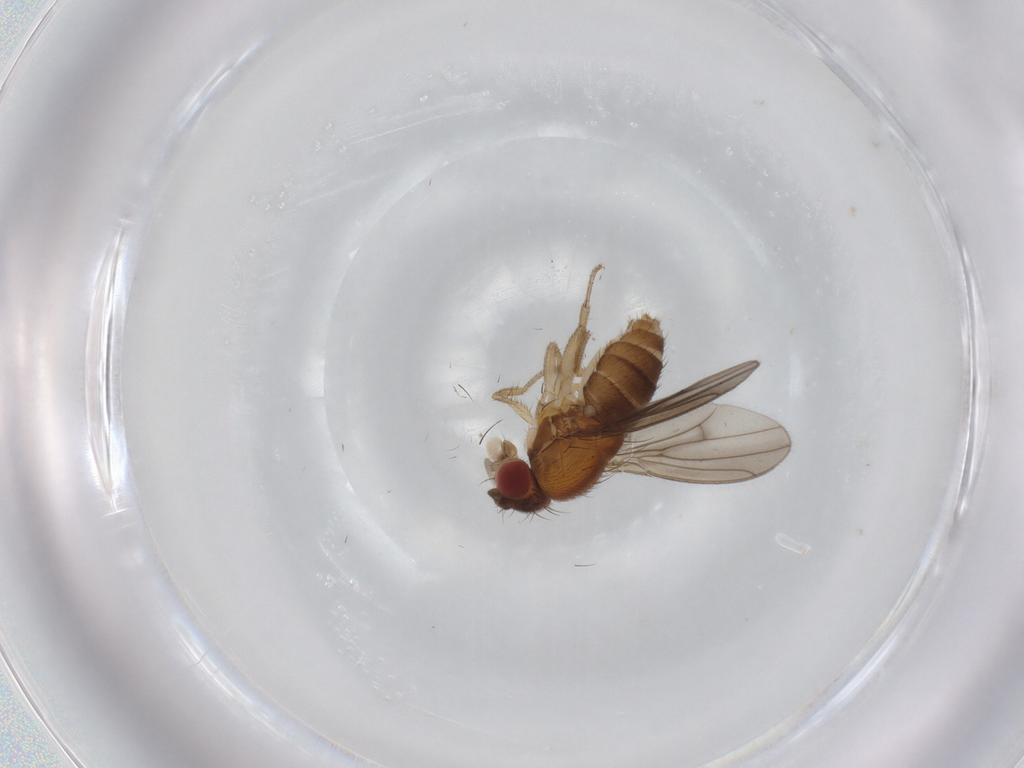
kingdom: Animalia
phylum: Arthropoda
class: Insecta
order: Diptera
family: Drosophilidae
